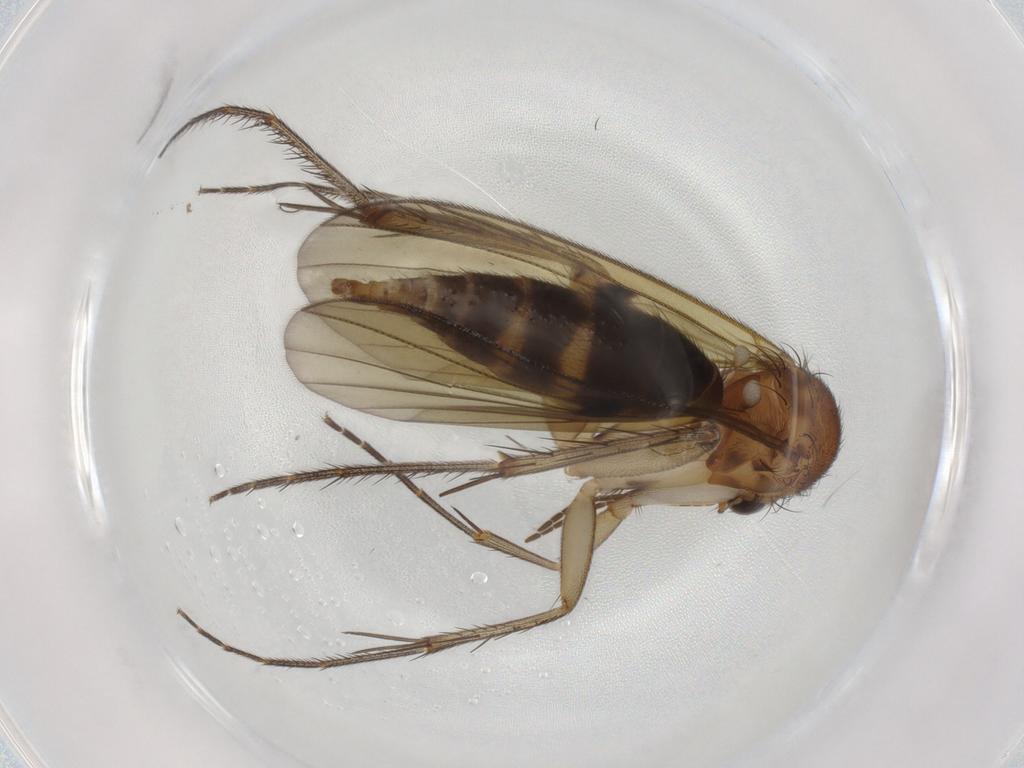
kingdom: Animalia
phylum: Arthropoda
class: Insecta
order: Diptera
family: Mycetophilidae
